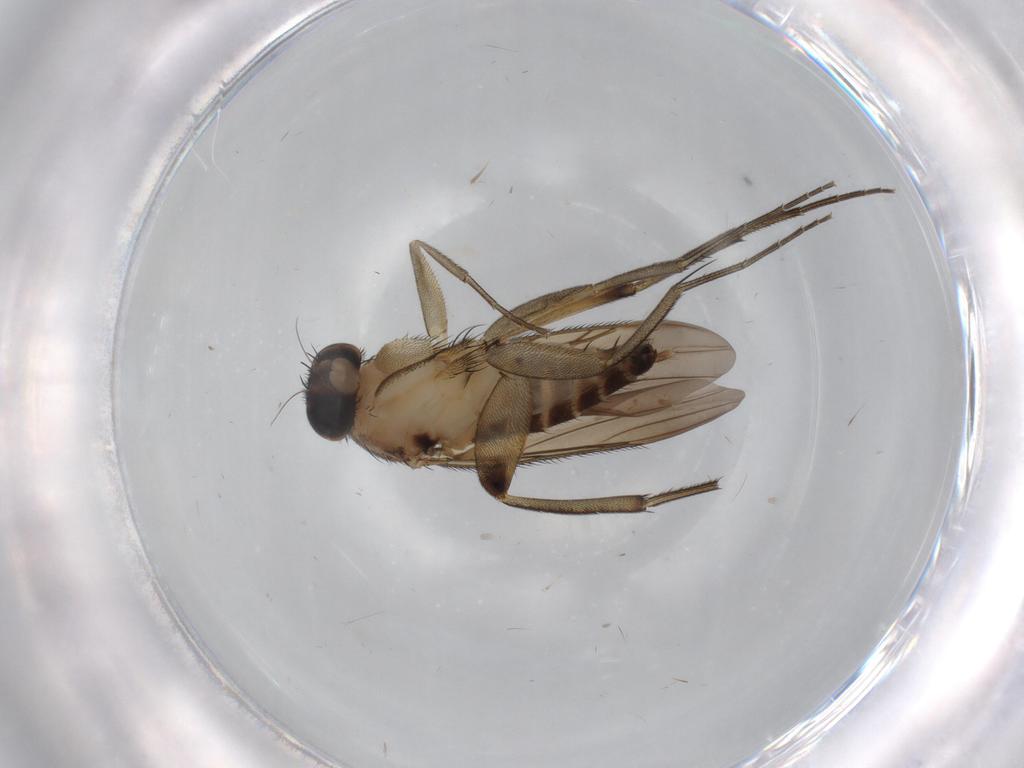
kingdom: Animalia
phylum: Arthropoda
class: Insecta
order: Diptera
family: Phoridae
